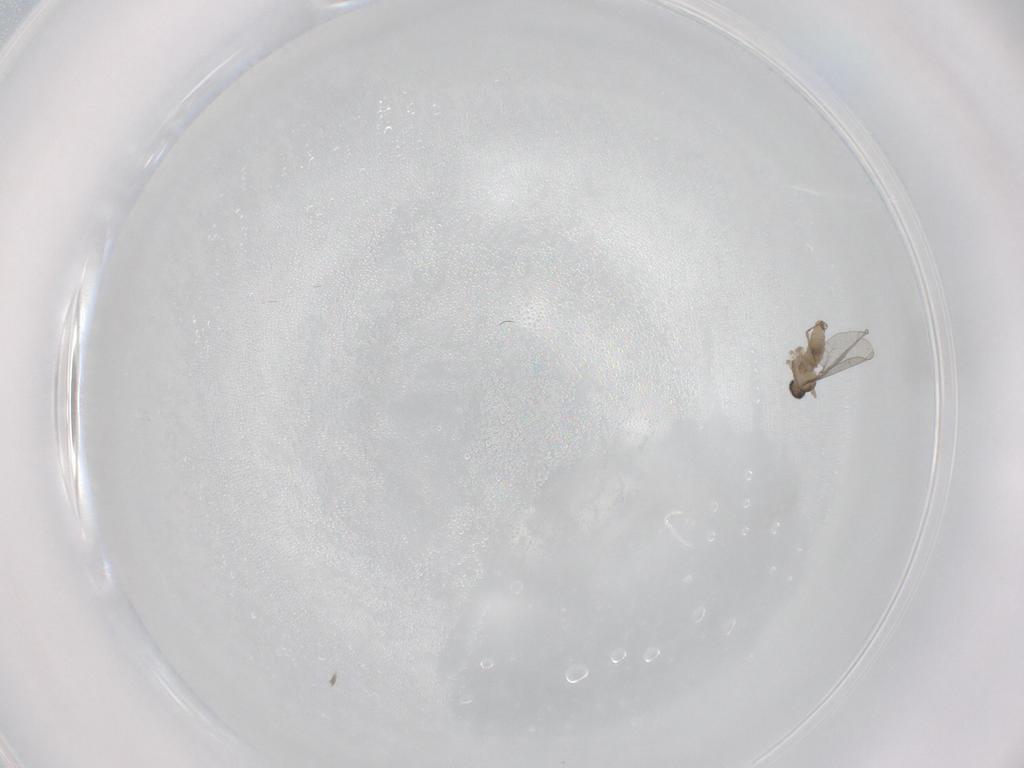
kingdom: Animalia
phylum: Arthropoda
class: Insecta
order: Diptera
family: Cecidomyiidae
